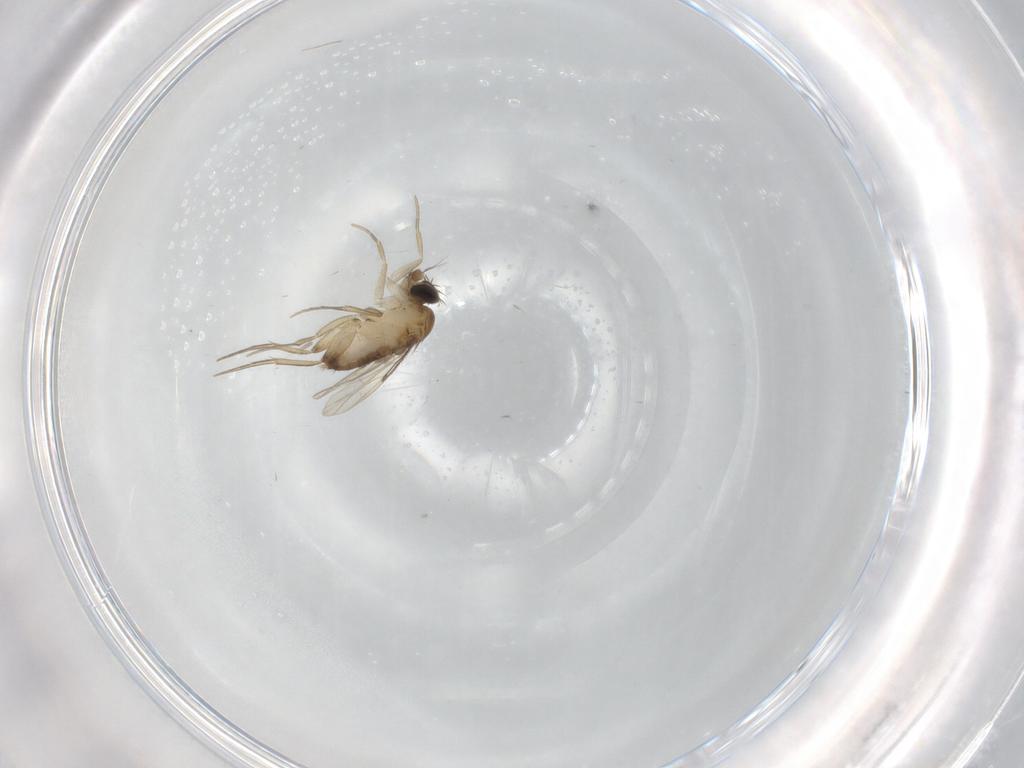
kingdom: Animalia
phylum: Arthropoda
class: Insecta
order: Diptera
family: Phoridae
